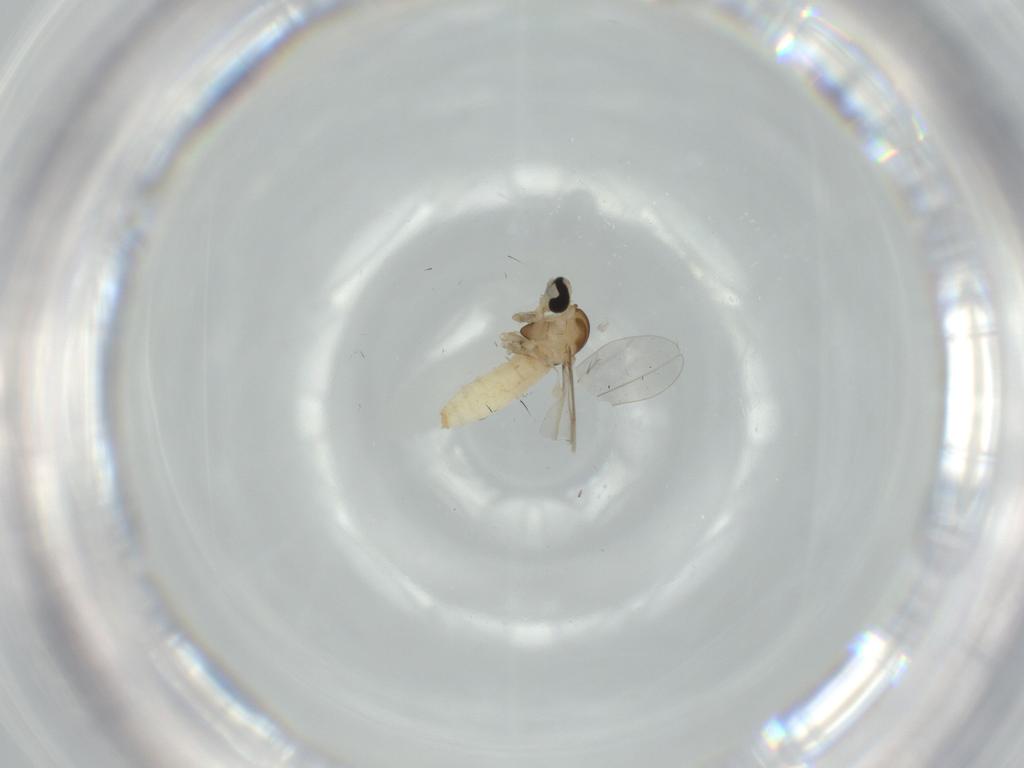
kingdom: Animalia
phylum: Arthropoda
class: Insecta
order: Diptera
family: Cecidomyiidae
